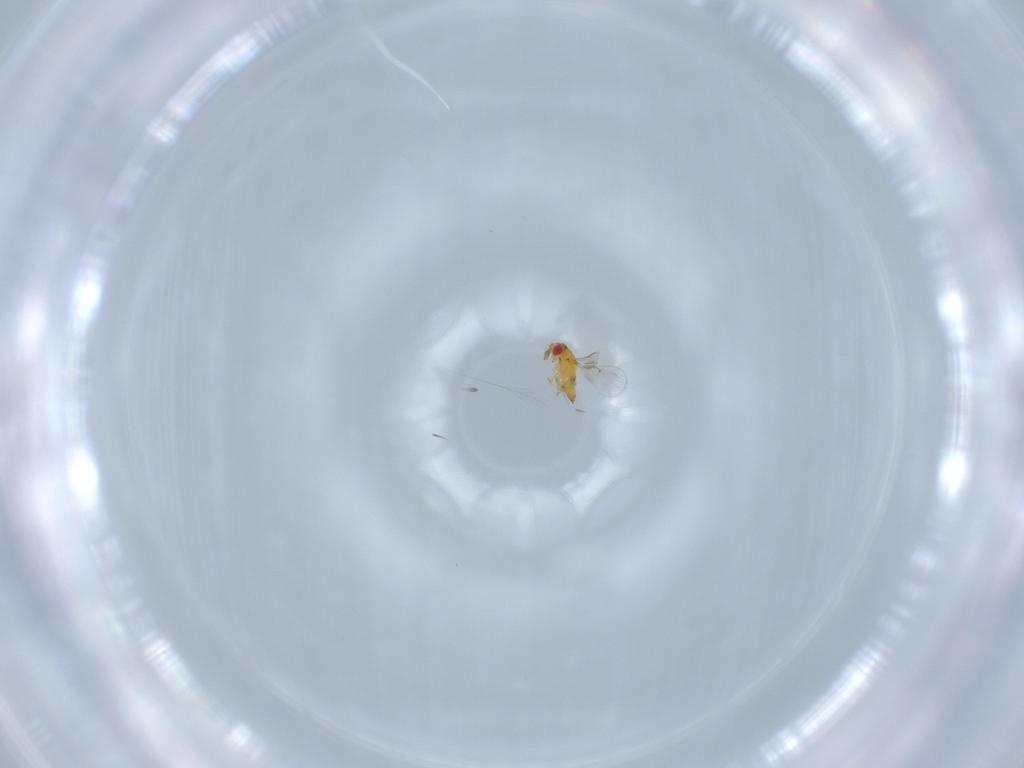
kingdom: Animalia
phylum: Arthropoda
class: Insecta
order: Hymenoptera
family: Trichogrammatidae
